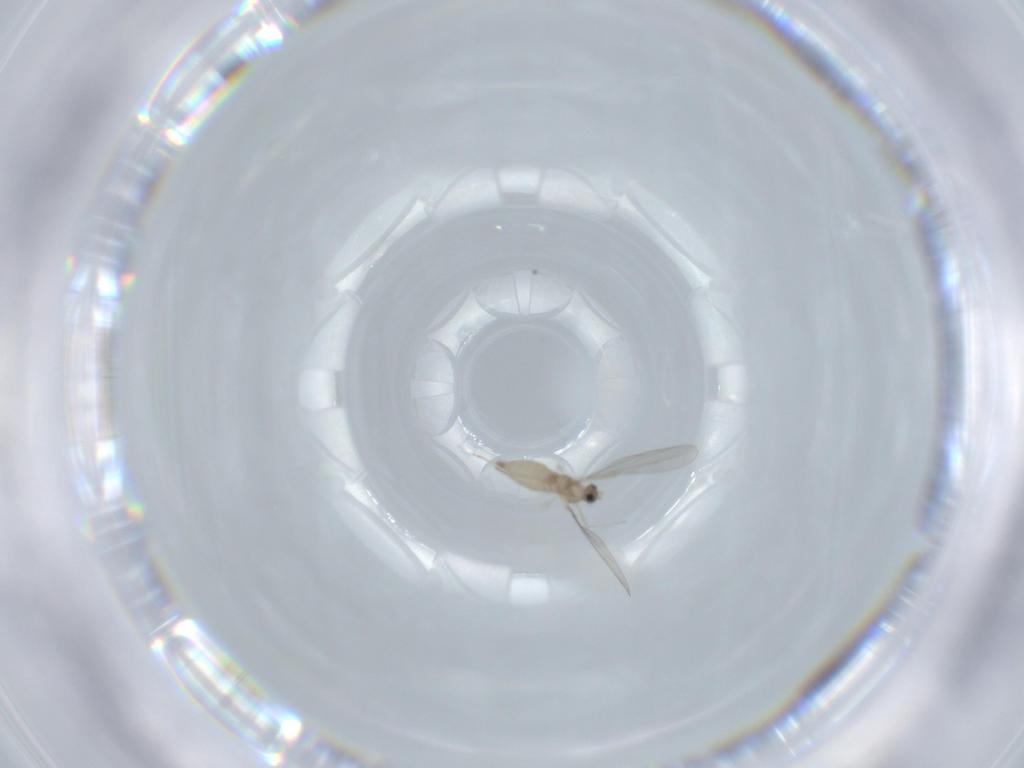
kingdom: Animalia
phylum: Arthropoda
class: Insecta
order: Diptera
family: Cecidomyiidae
